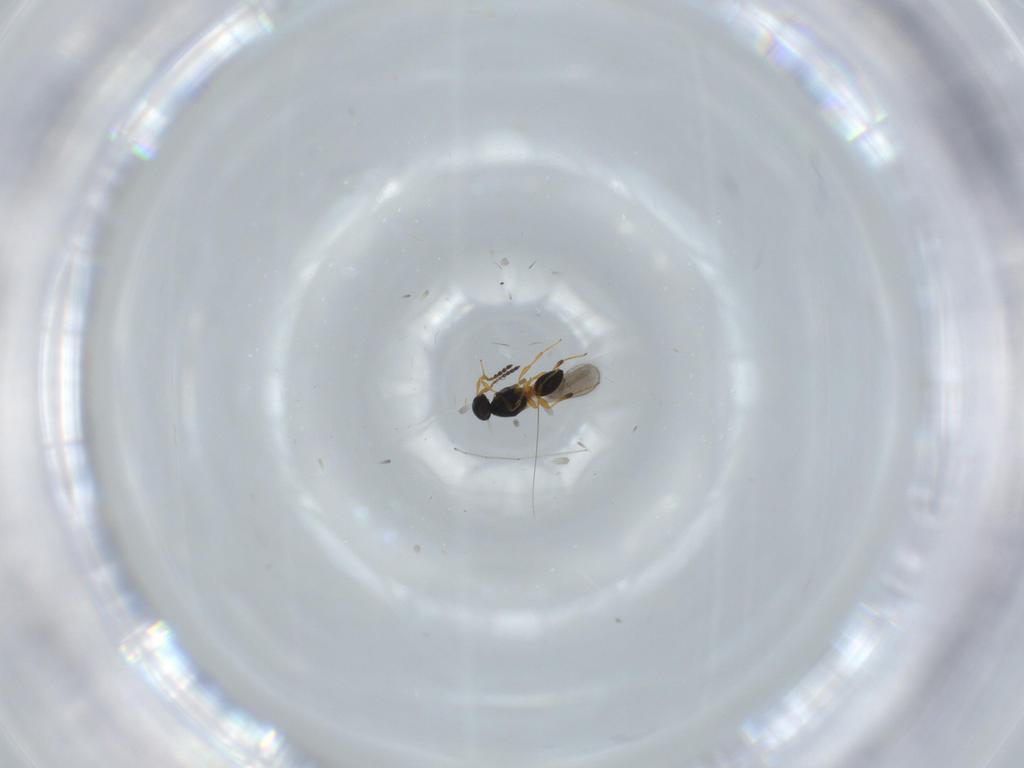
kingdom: Animalia
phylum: Arthropoda
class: Insecta
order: Hymenoptera
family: Platygastridae
